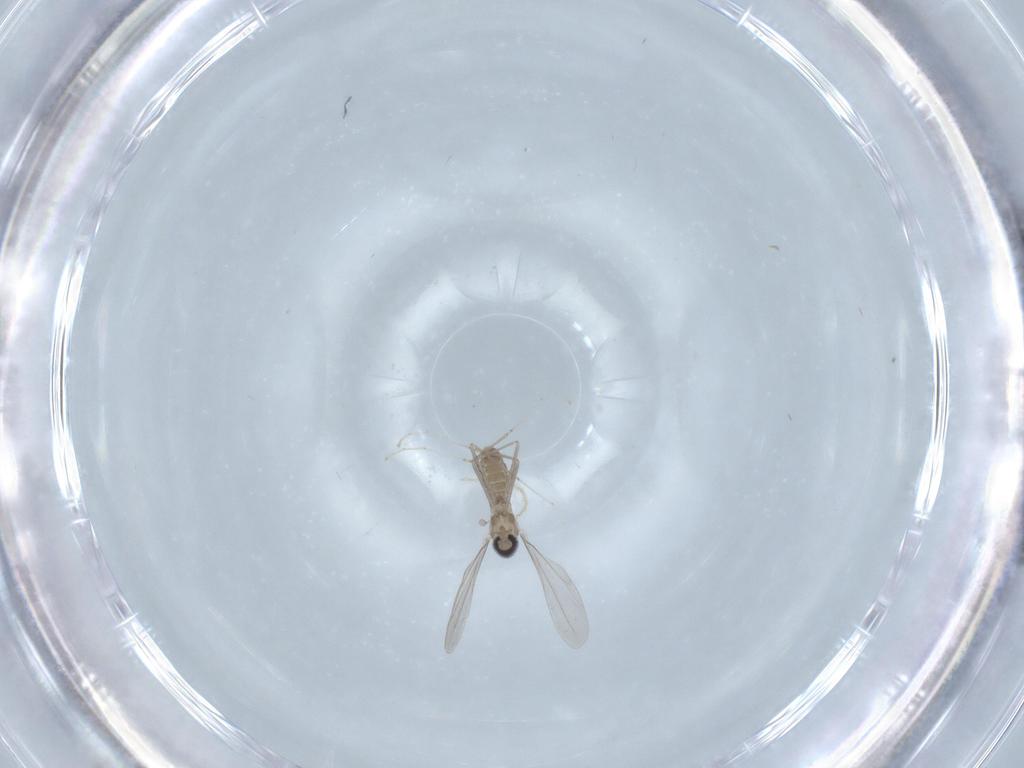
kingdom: Animalia
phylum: Arthropoda
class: Insecta
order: Diptera
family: Cecidomyiidae
